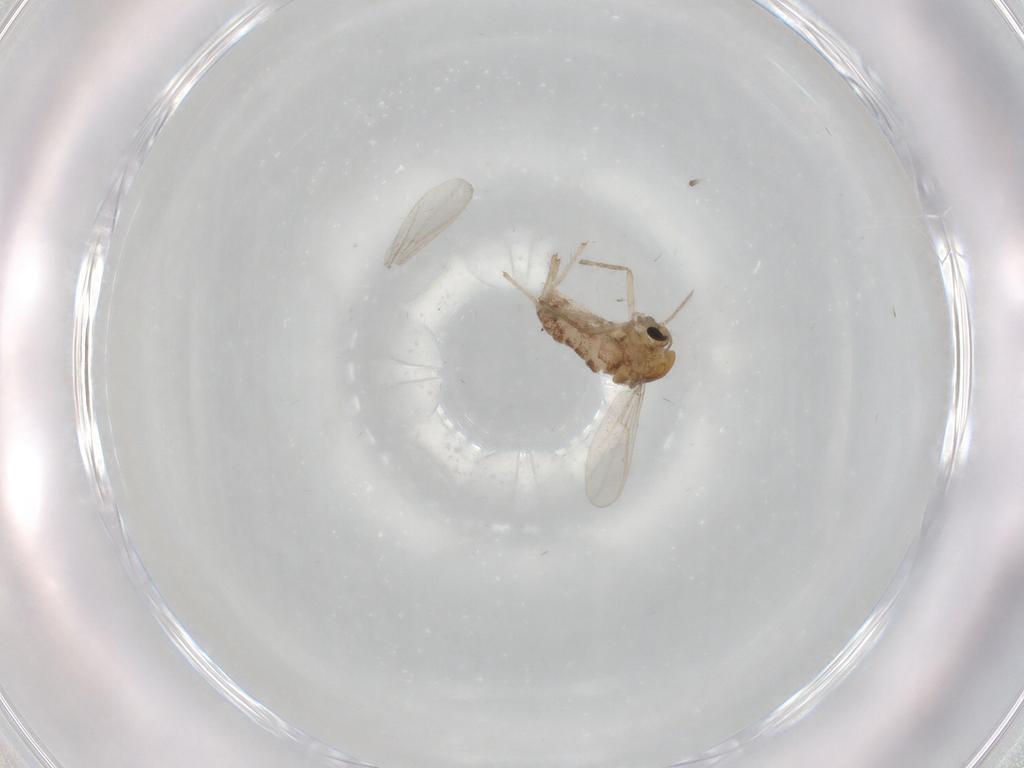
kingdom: Animalia
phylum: Arthropoda
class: Insecta
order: Diptera
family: Chironomidae
